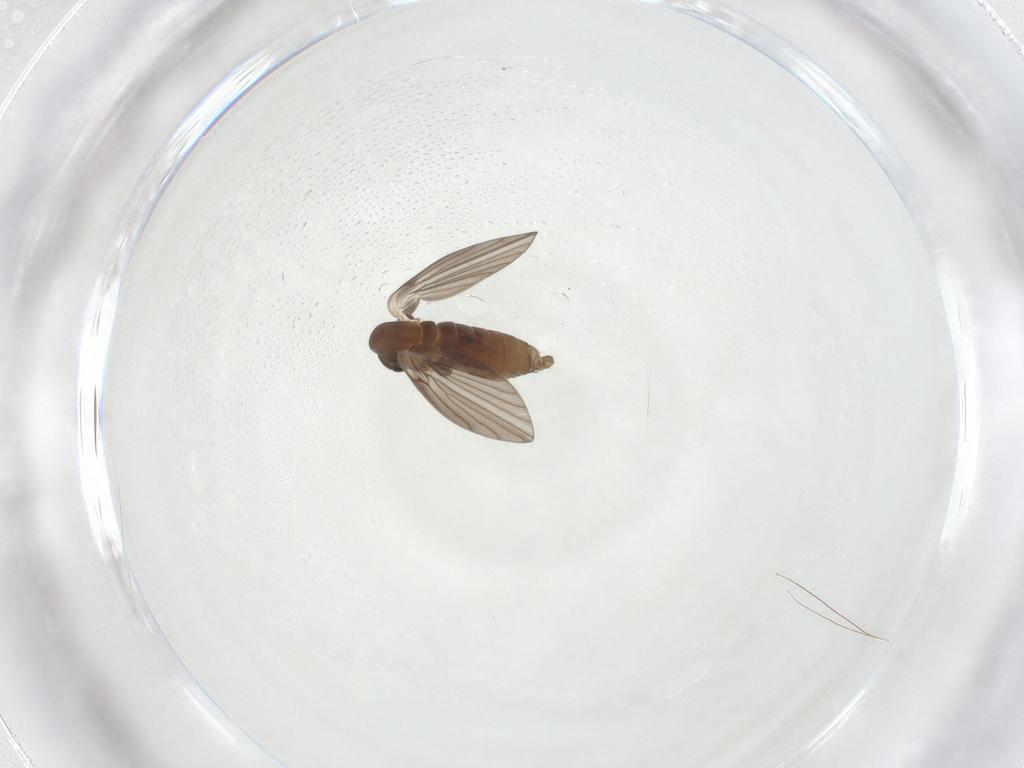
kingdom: Animalia
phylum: Arthropoda
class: Insecta
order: Diptera
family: Psychodidae
